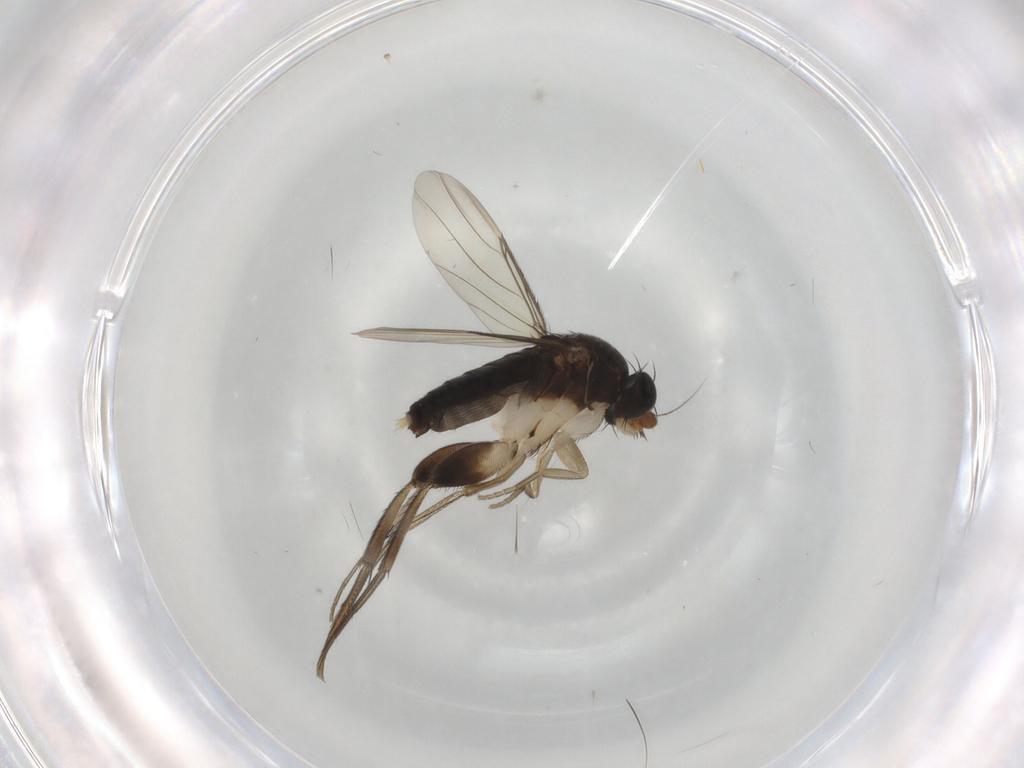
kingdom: Animalia
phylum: Arthropoda
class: Insecta
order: Diptera
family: Phoridae
